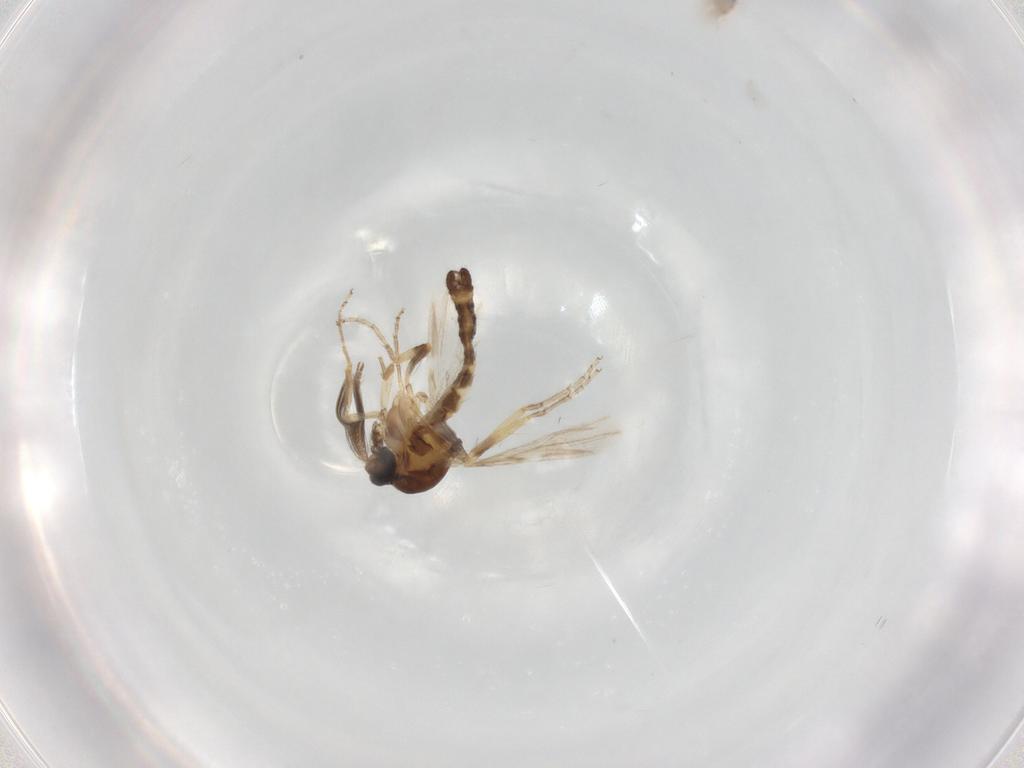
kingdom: Animalia
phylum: Arthropoda
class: Insecta
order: Diptera
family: Ceratopogonidae
